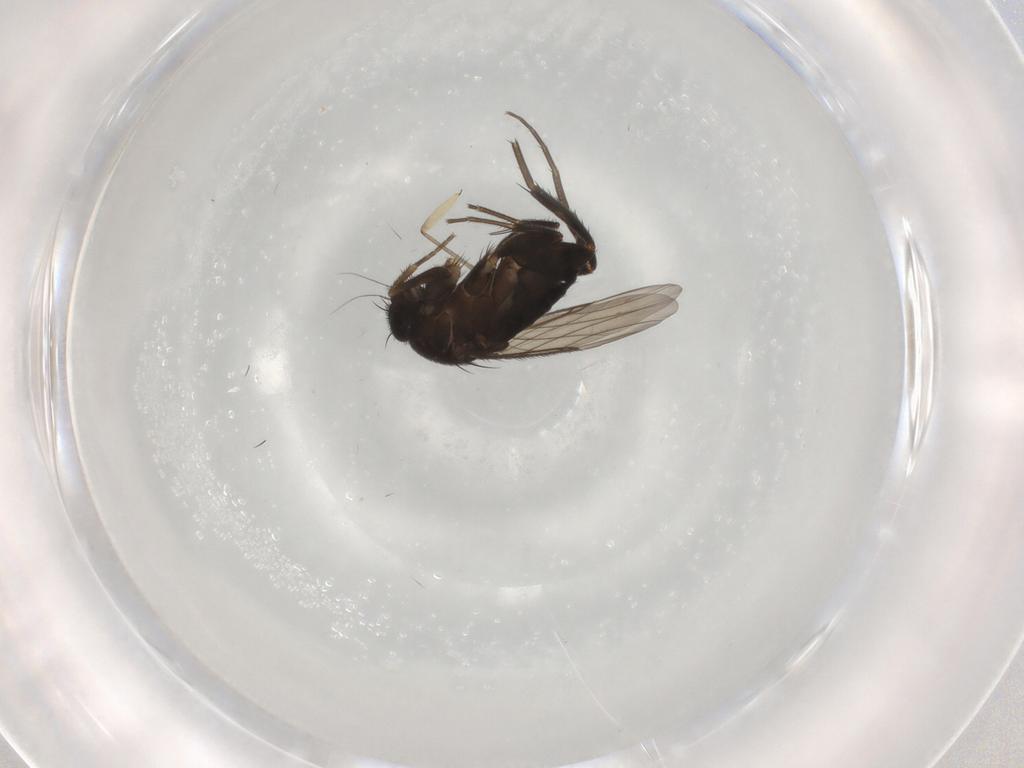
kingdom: Animalia
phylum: Arthropoda
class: Insecta
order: Diptera
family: Phoridae
